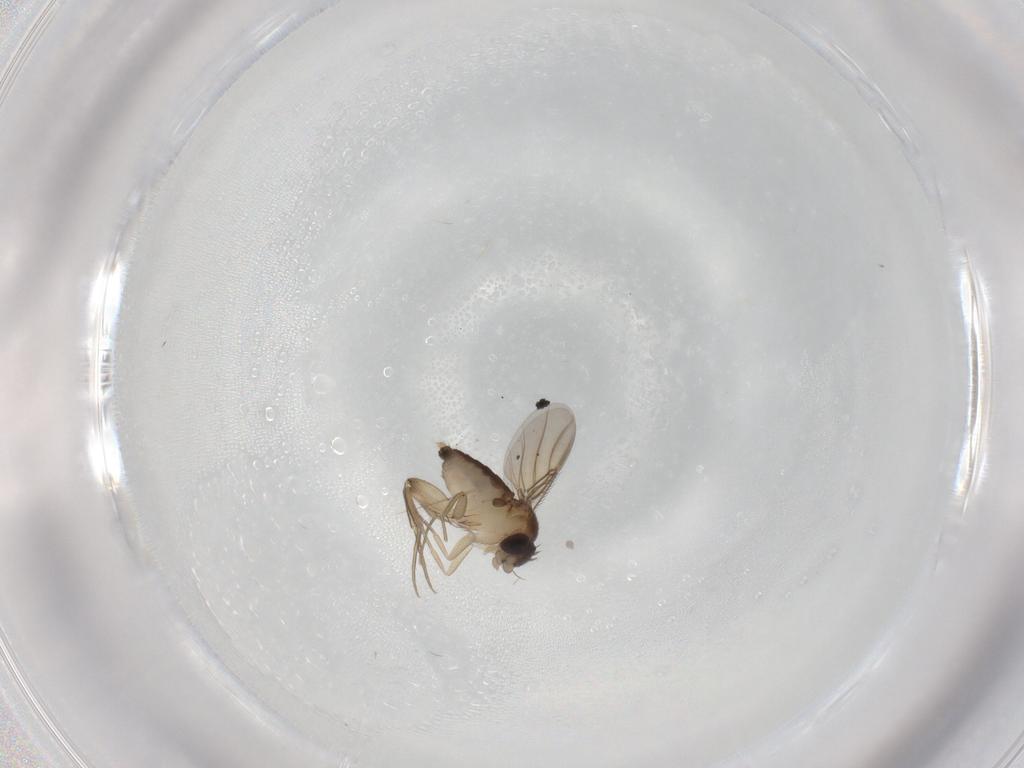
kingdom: Animalia
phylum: Arthropoda
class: Insecta
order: Diptera
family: Phoridae
